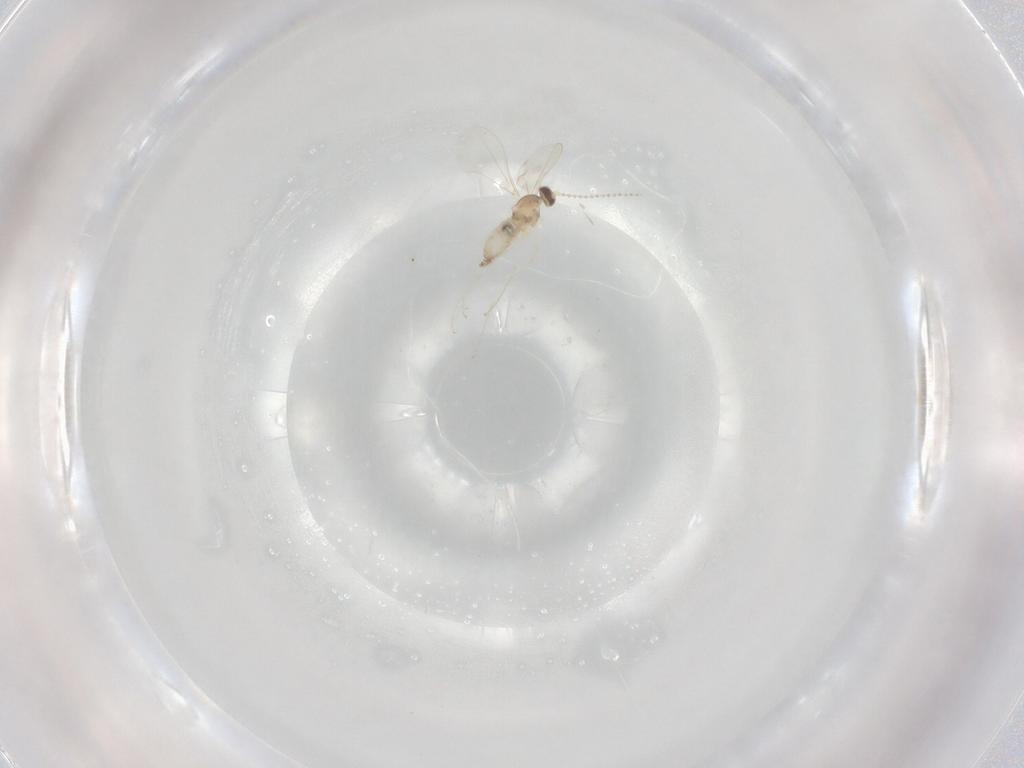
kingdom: Animalia
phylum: Arthropoda
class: Insecta
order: Diptera
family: Cecidomyiidae
